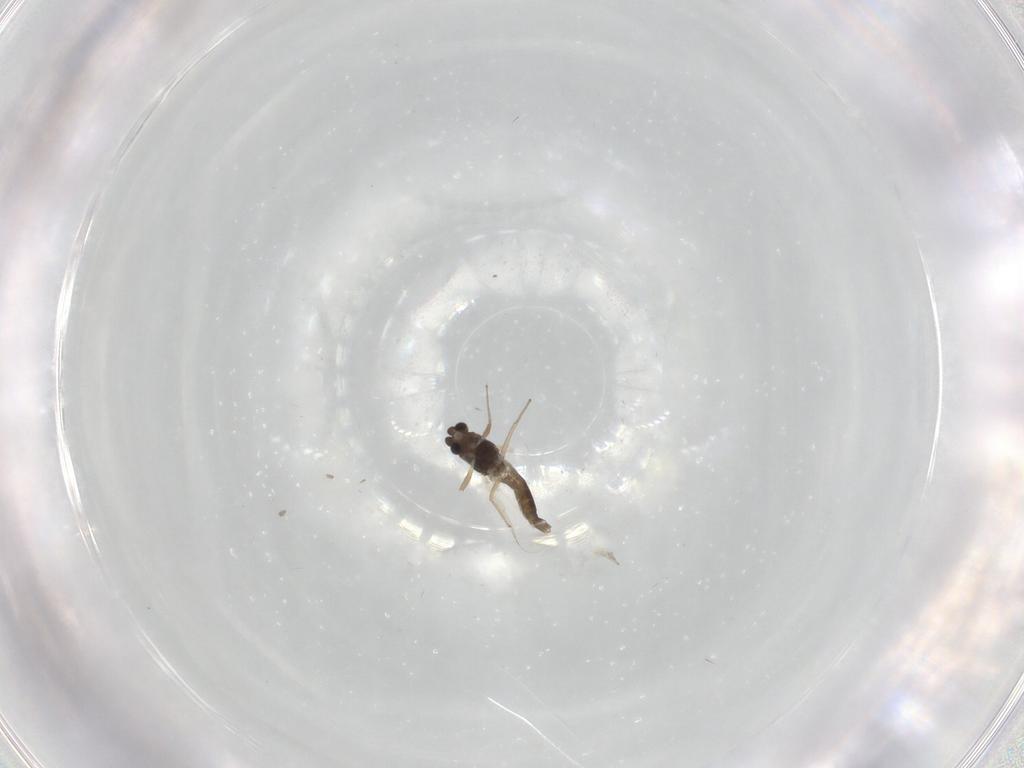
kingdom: Animalia
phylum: Arthropoda
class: Insecta
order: Diptera
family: Chironomidae
